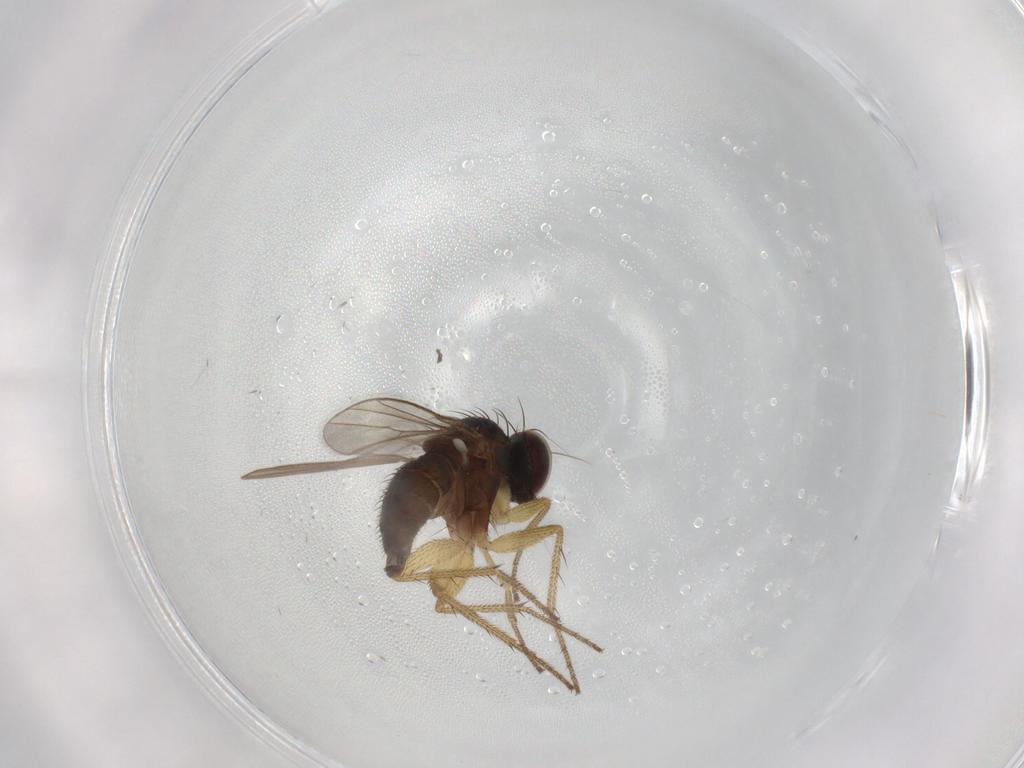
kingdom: Animalia
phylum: Arthropoda
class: Insecta
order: Diptera
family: Dolichopodidae
